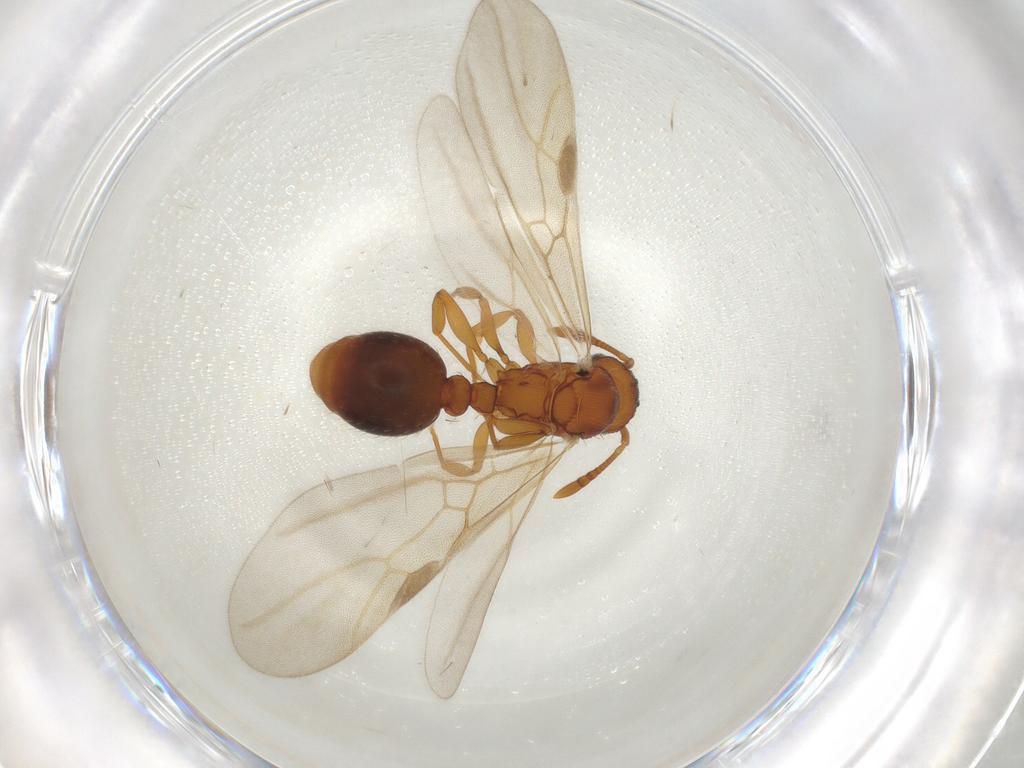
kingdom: Animalia
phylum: Arthropoda
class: Insecta
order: Hymenoptera
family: Formicidae
